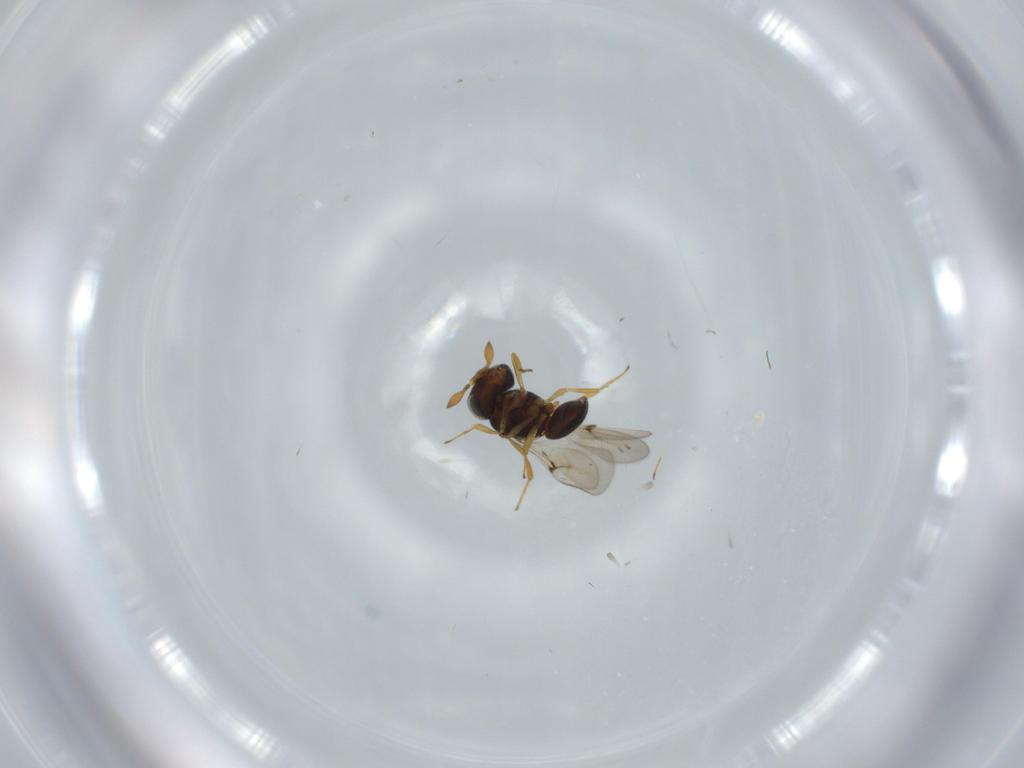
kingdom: Animalia
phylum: Arthropoda
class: Insecta
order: Hymenoptera
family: Scelionidae
